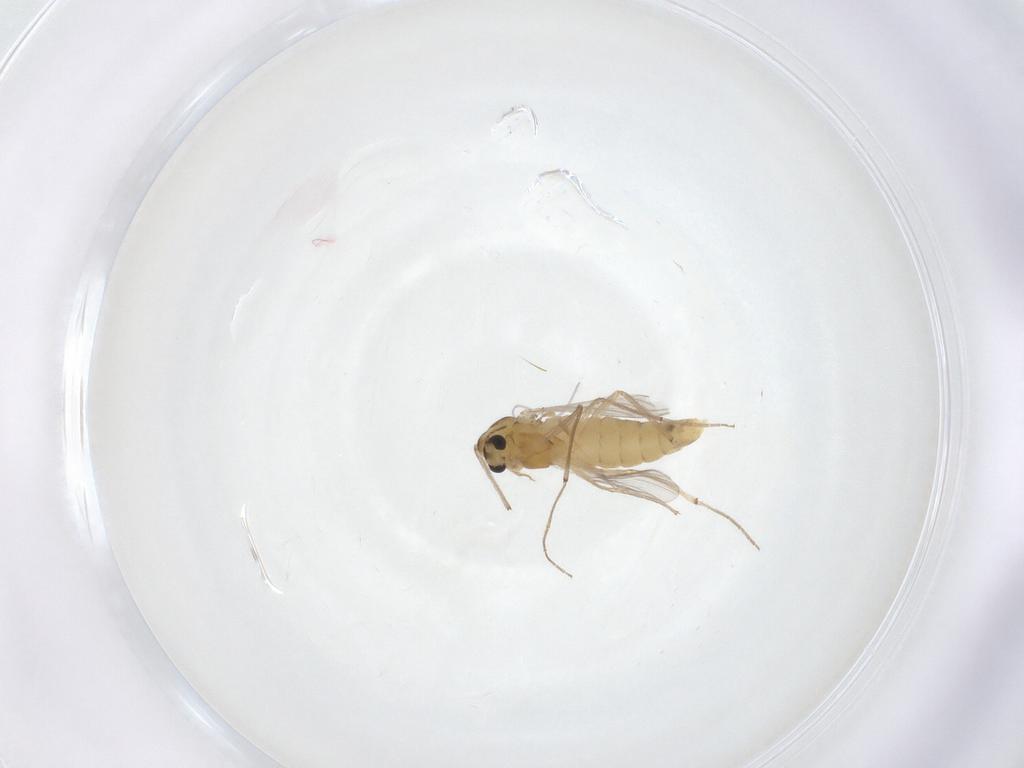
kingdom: Animalia
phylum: Arthropoda
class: Insecta
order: Diptera
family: Chironomidae
